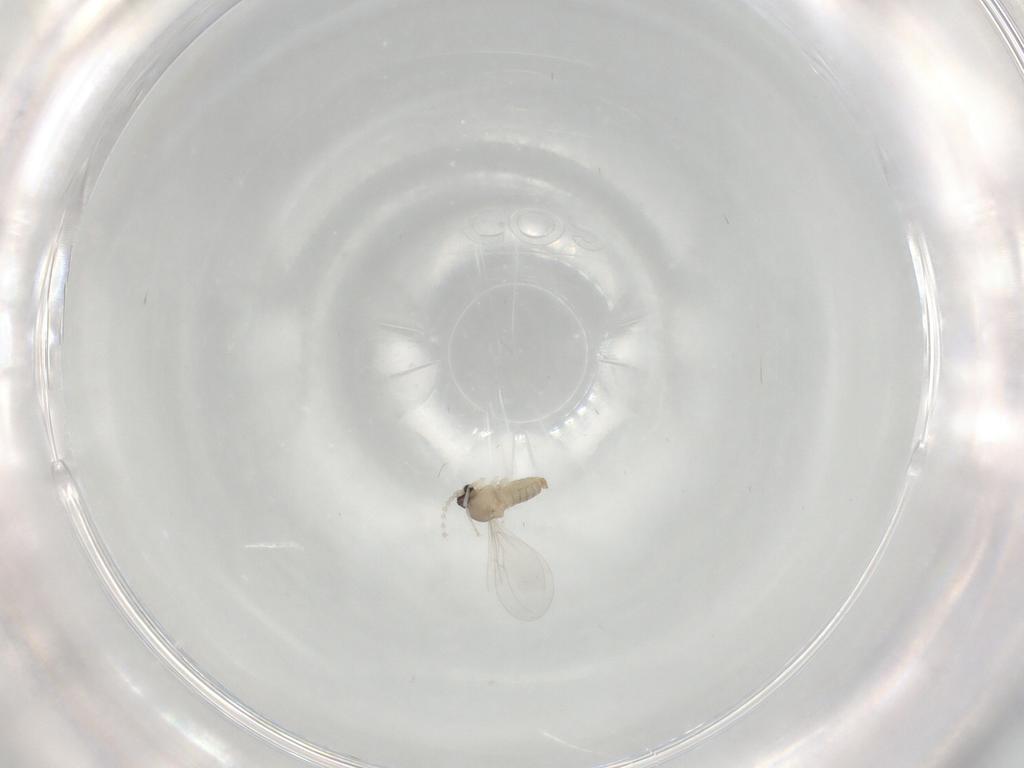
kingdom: Animalia
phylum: Arthropoda
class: Insecta
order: Diptera
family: Cecidomyiidae
